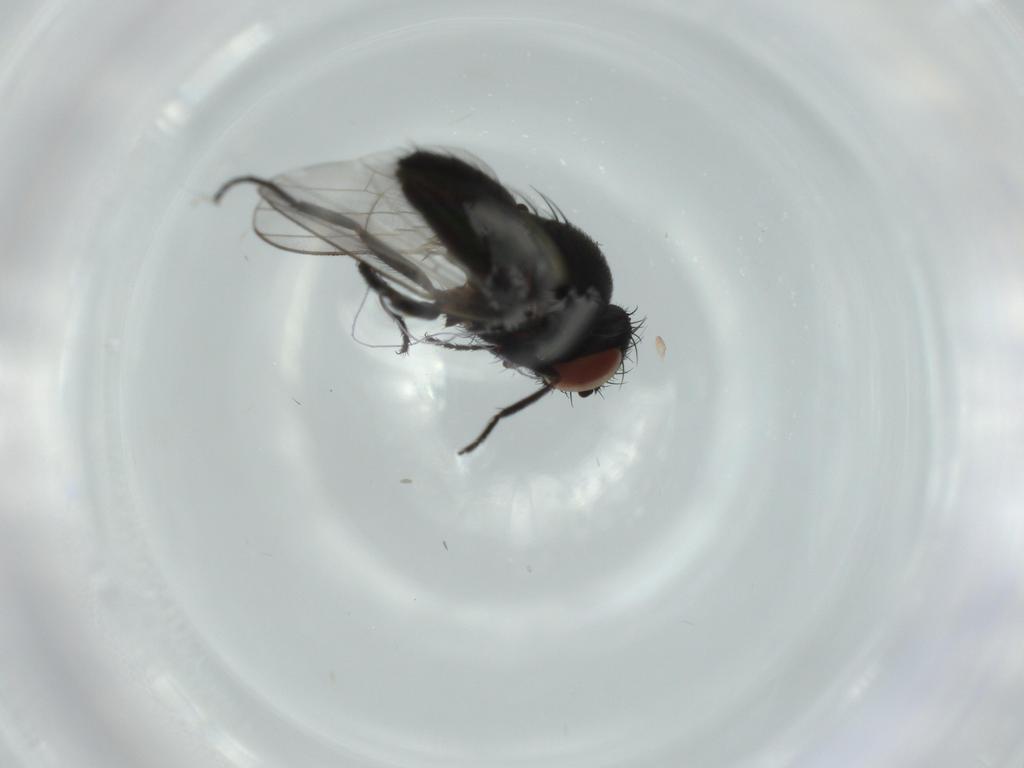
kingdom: Animalia
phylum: Arthropoda
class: Insecta
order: Diptera
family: Milichiidae
